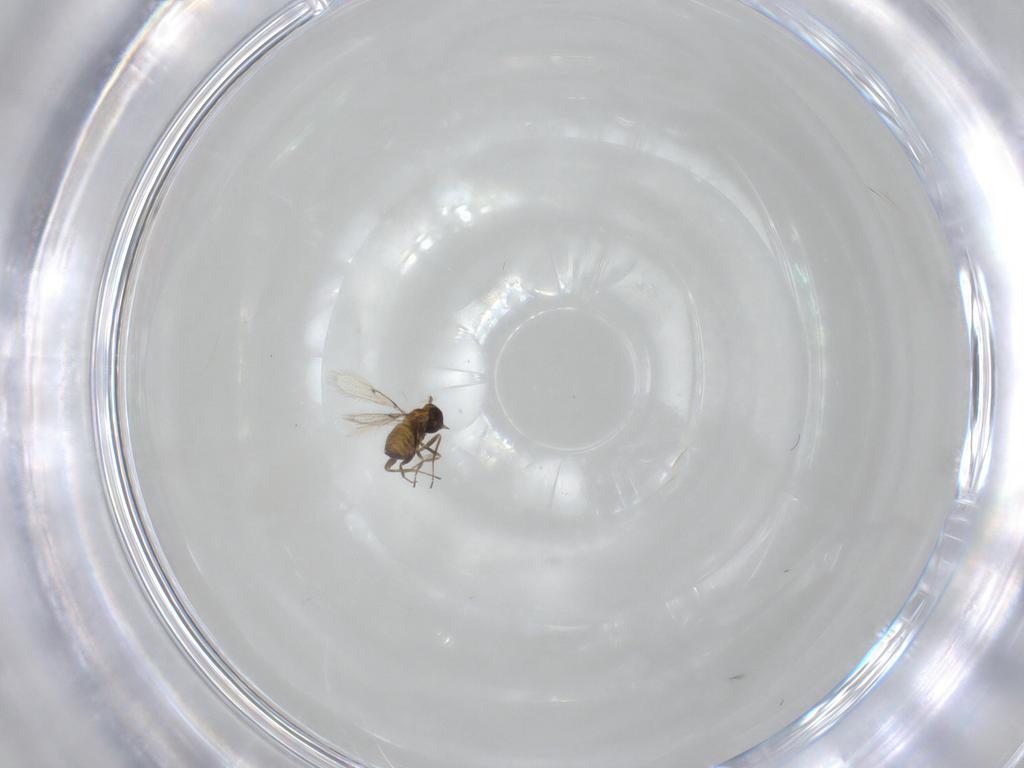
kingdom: Animalia
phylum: Arthropoda
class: Insecta
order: Hymenoptera
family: Trichogrammatidae
